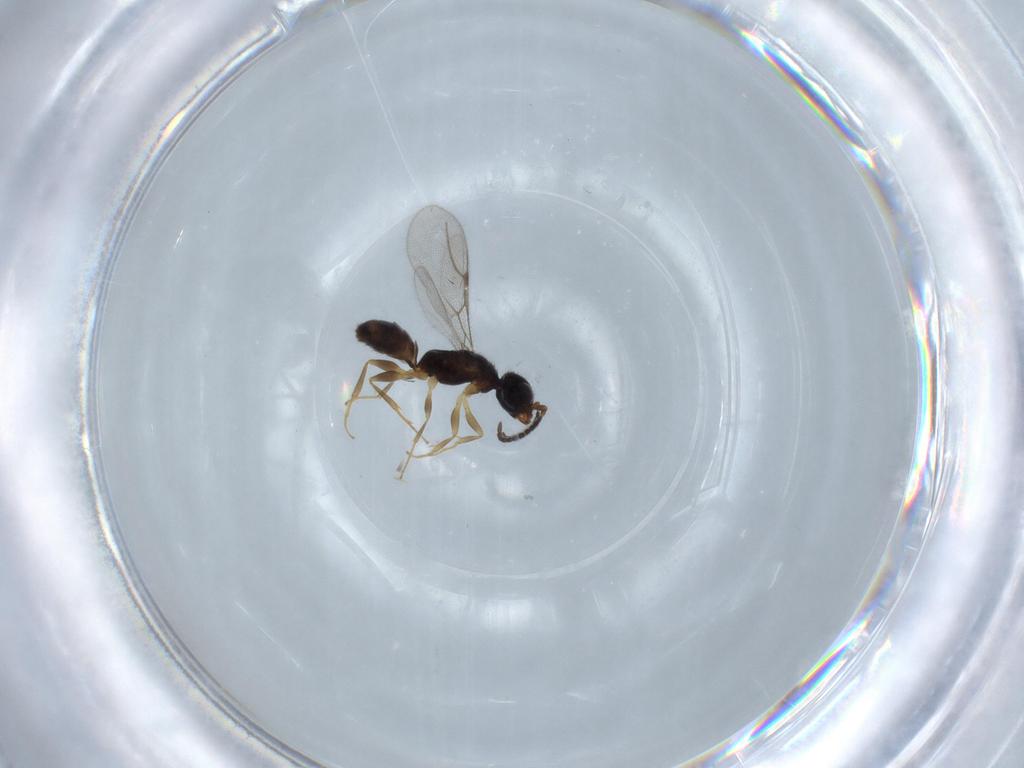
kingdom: Animalia
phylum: Arthropoda
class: Insecta
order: Hymenoptera
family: Bethylidae
